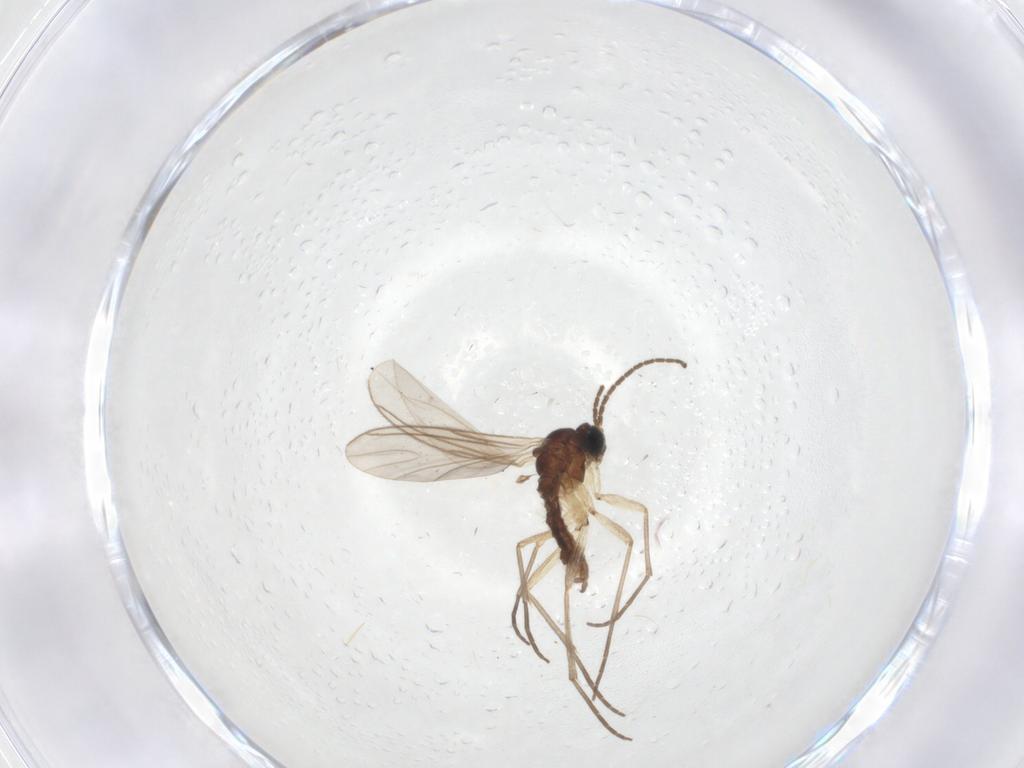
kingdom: Animalia
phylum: Arthropoda
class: Insecta
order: Diptera
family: Sciaridae
